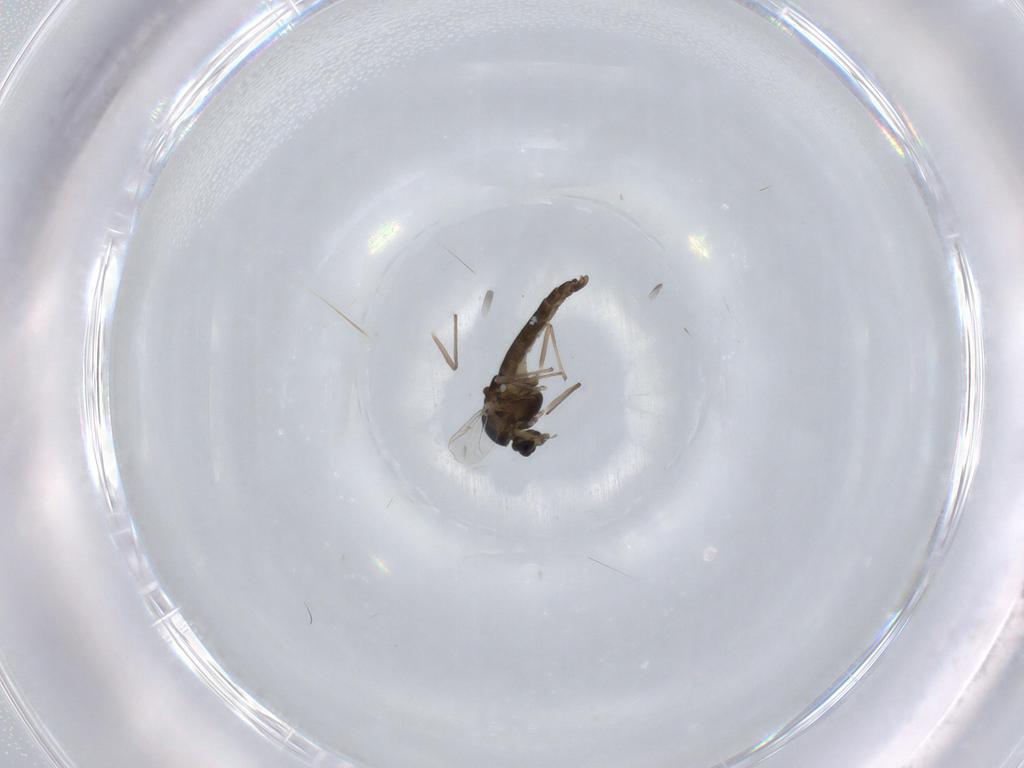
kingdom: Animalia
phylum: Arthropoda
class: Insecta
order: Diptera
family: Chironomidae
